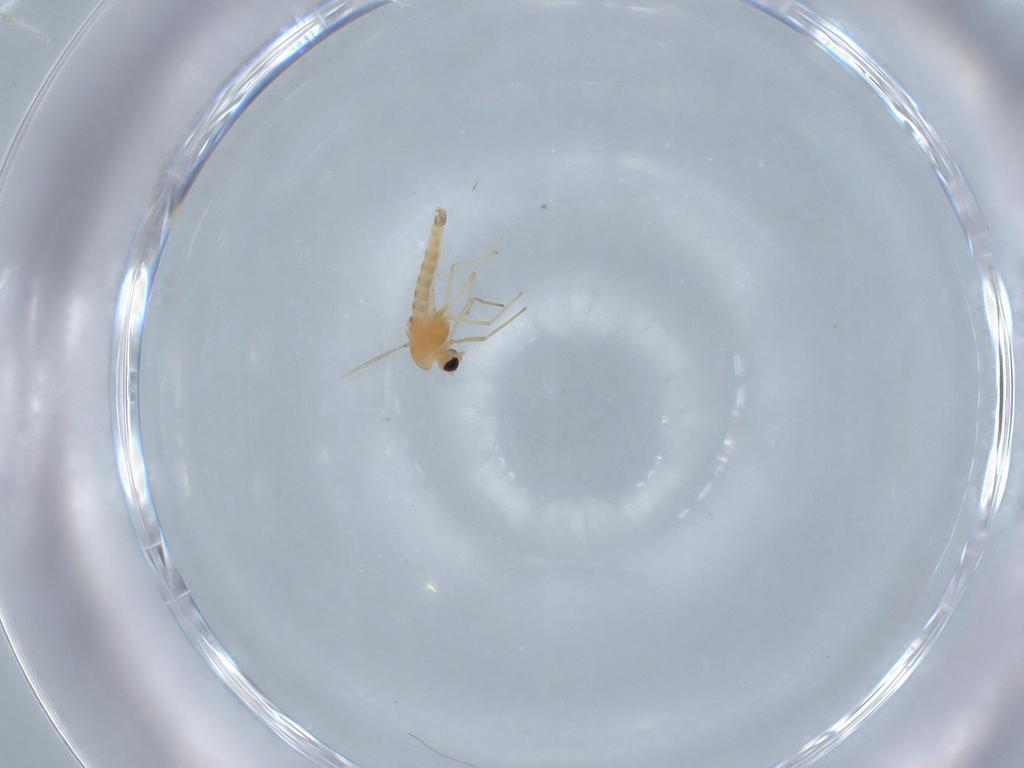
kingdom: Animalia
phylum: Arthropoda
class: Insecta
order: Diptera
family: Chironomidae
